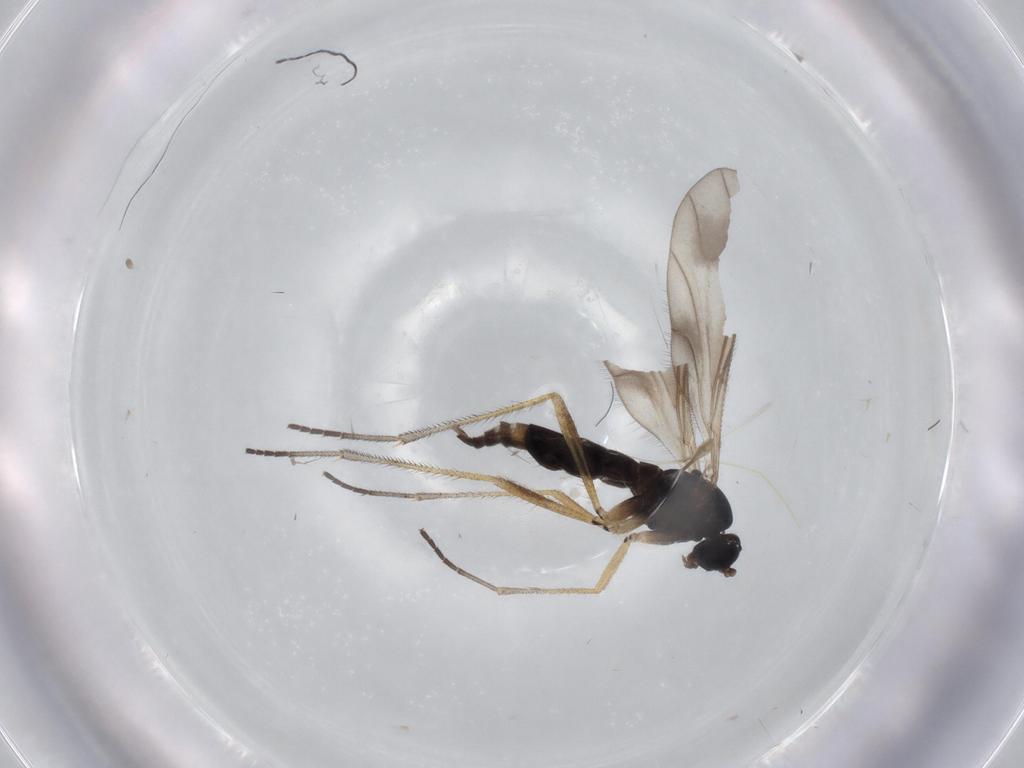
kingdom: Animalia
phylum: Arthropoda
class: Insecta
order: Diptera
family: Sciaridae
